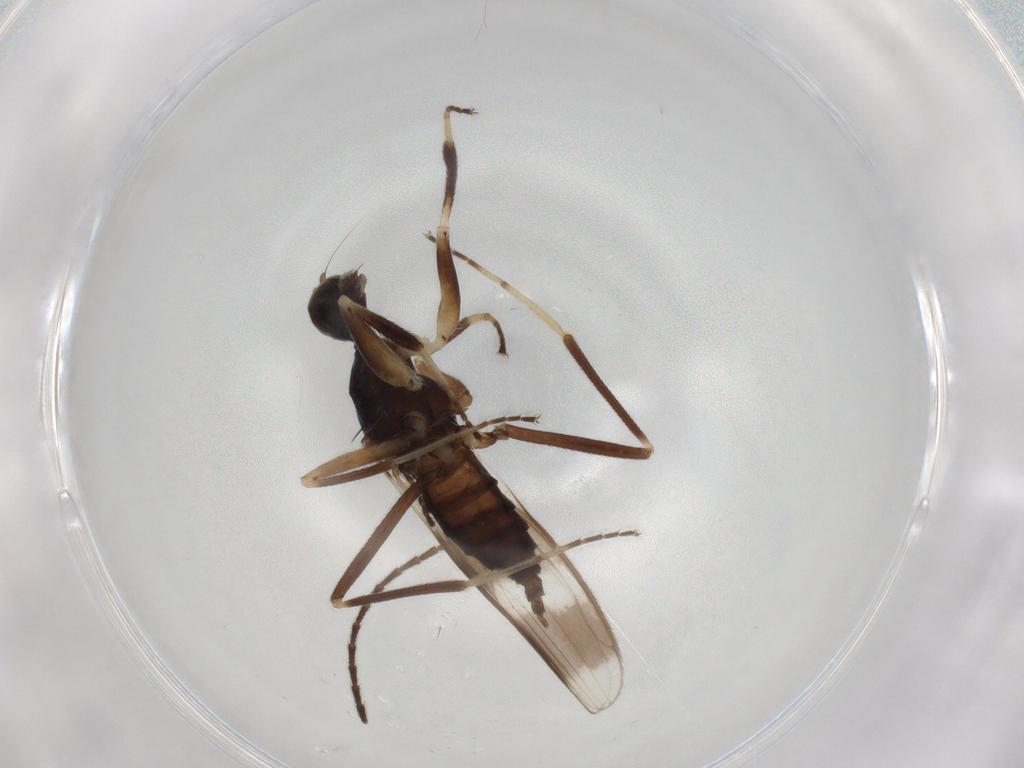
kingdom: Animalia
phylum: Arthropoda
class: Insecta
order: Diptera
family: Hybotidae
